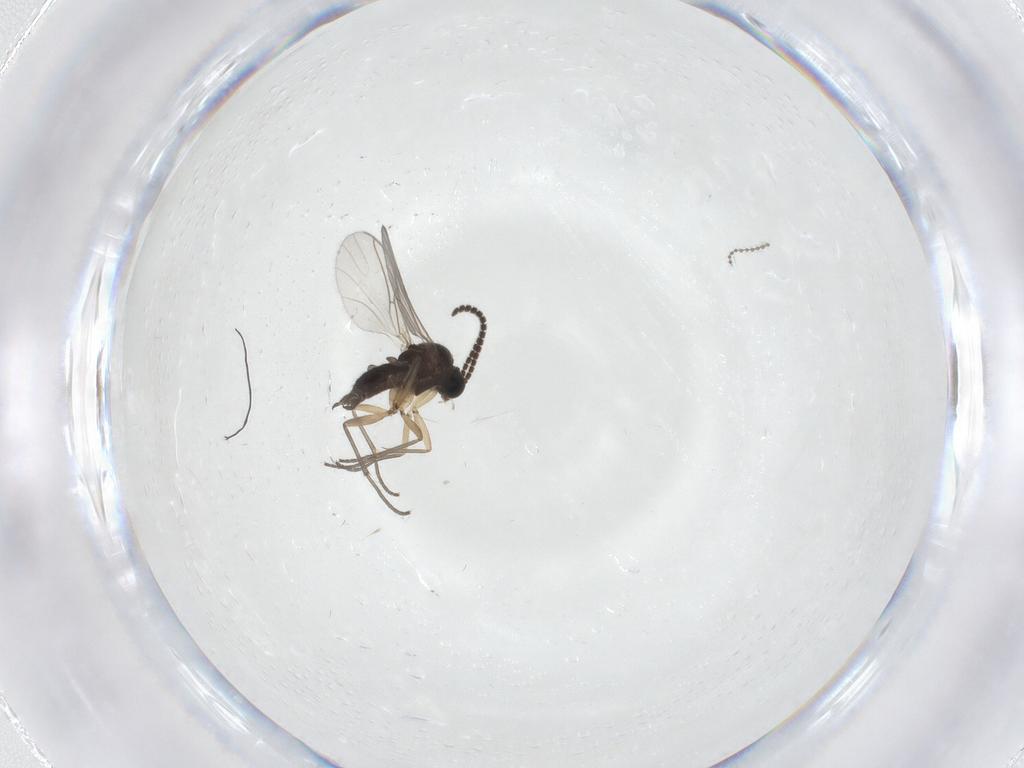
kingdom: Animalia
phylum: Arthropoda
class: Insecta
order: Diptera
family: Sciaridae
